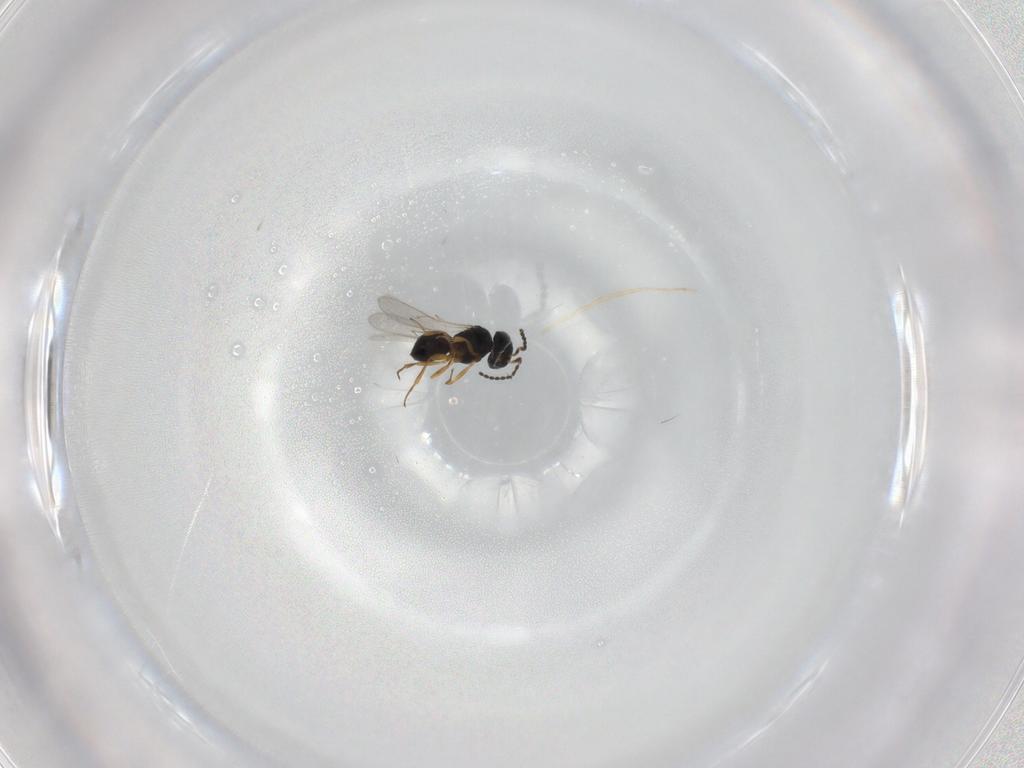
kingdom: Animalia
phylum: Arthropoda
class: Insecta
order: Hymenoptera
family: Scelionidae
